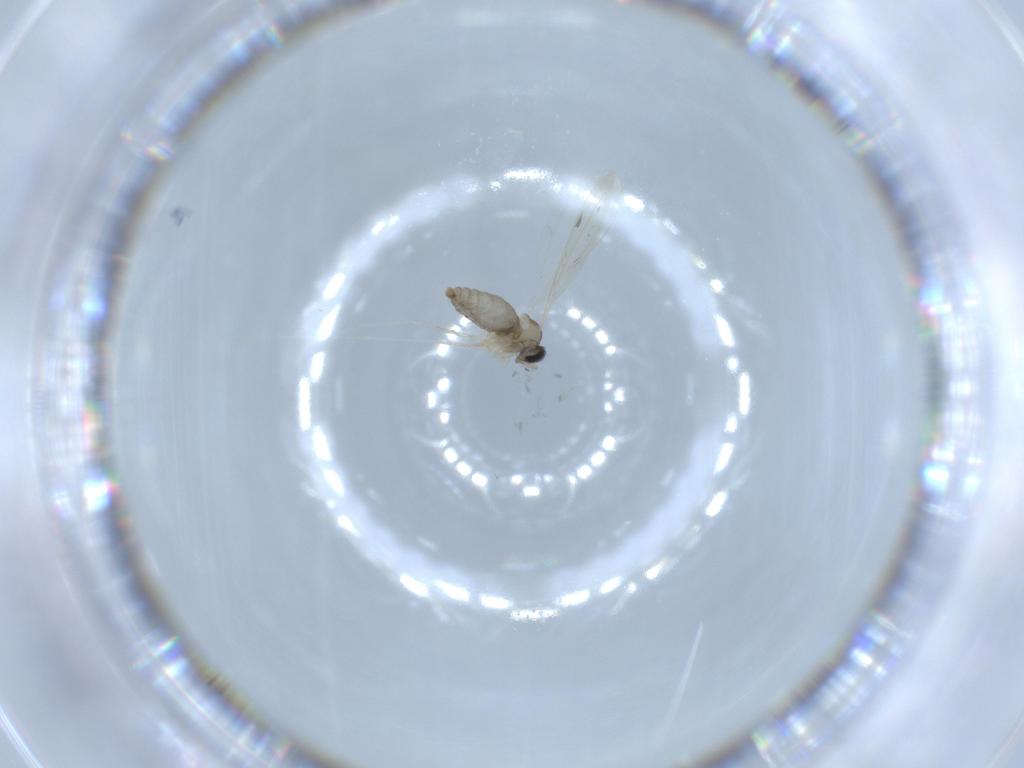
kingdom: Animalia
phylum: Arthropoda
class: Insecta
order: Diptera
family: Cecidomyiidae
